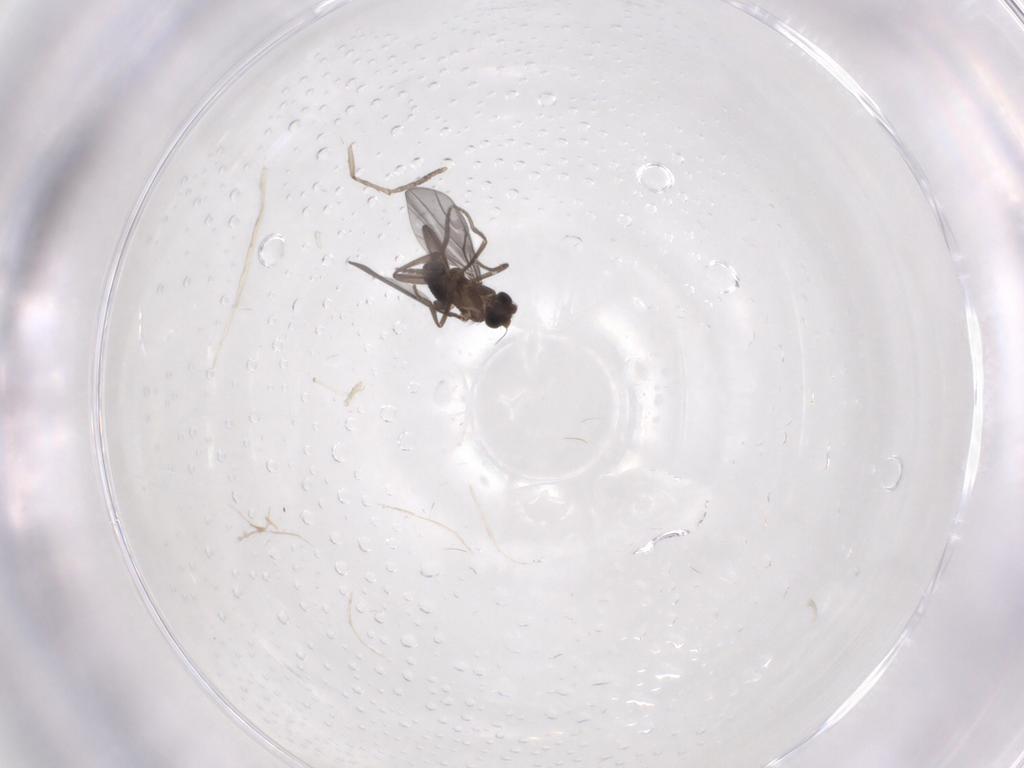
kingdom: Animalia
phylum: Arthropoda
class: Insecta
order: Diptera
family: Psychodidae
